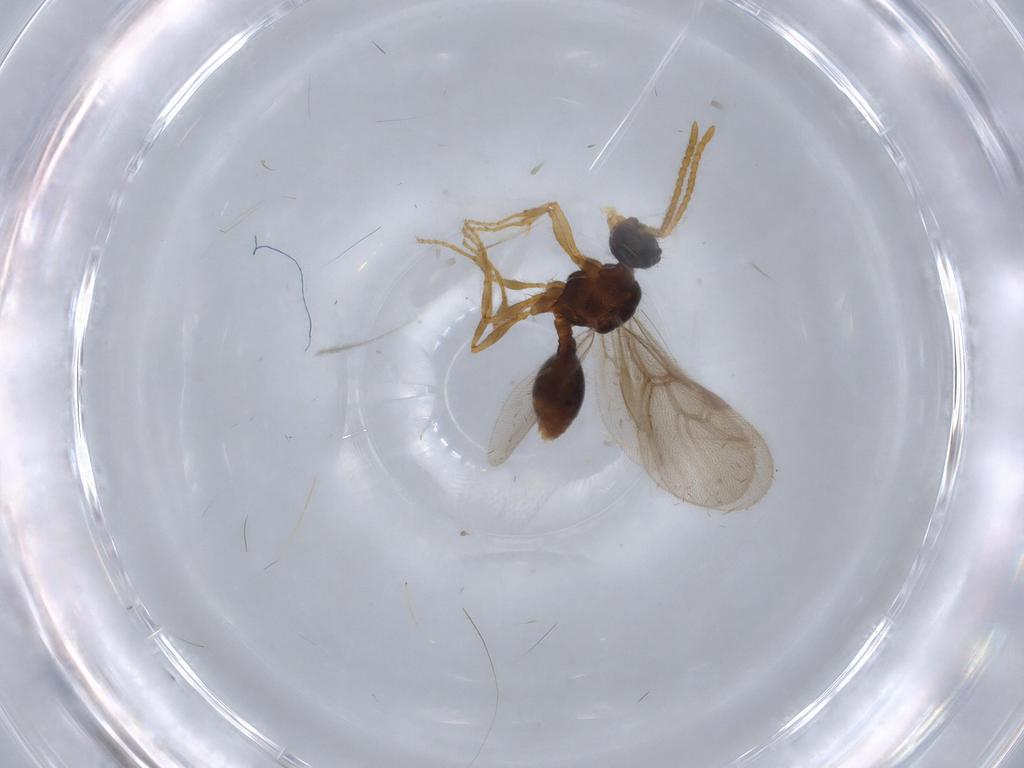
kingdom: Animalia
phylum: Arthropoda
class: Insecta
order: Hymenoptera
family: Formicidae
